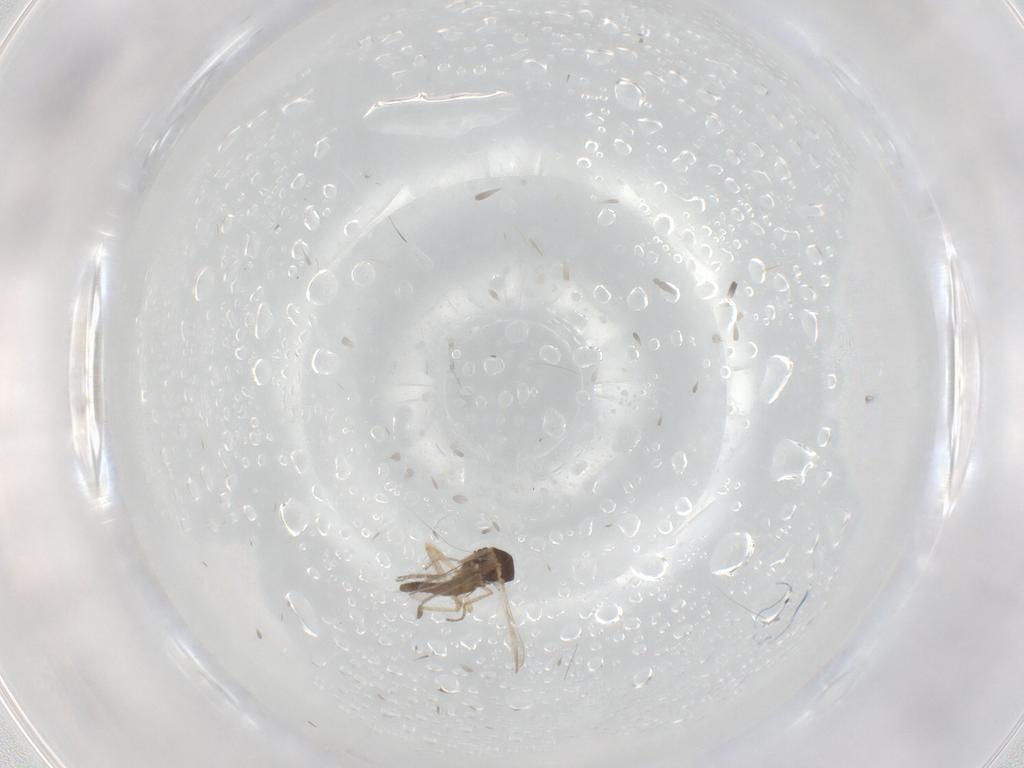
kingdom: Animalia
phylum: Arthropoda
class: Insecta
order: Diptera
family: Ceratopogonidae
